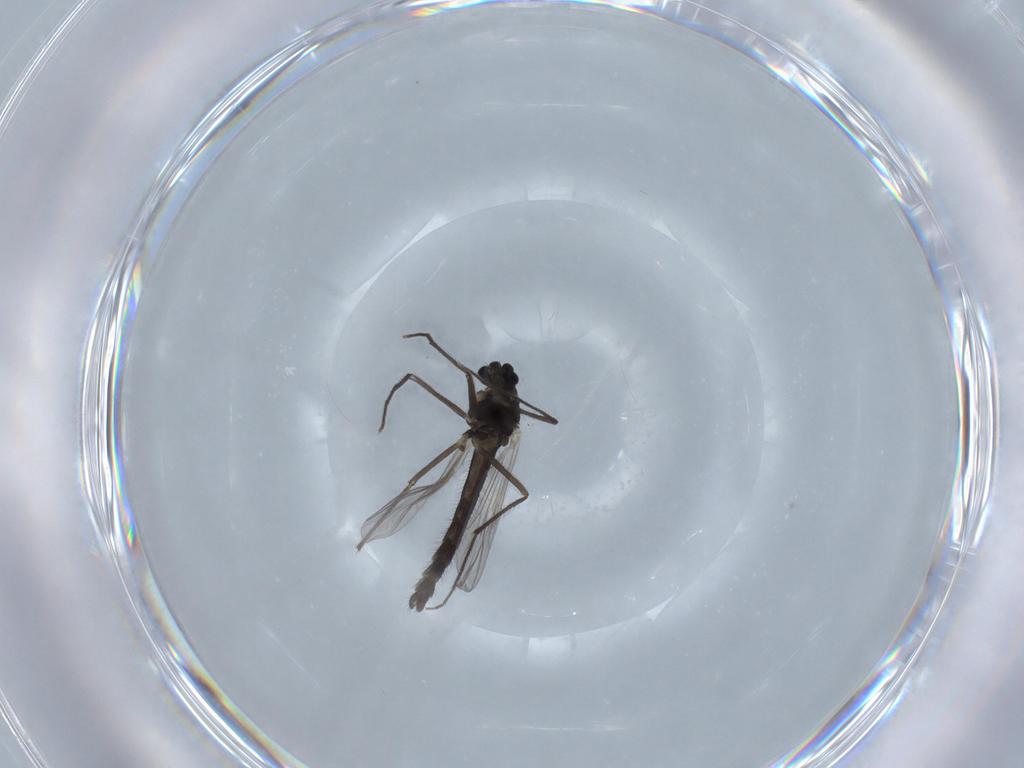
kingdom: Animalia
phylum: Arthropoda
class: Insecta
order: Diptera
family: Chironomidae
